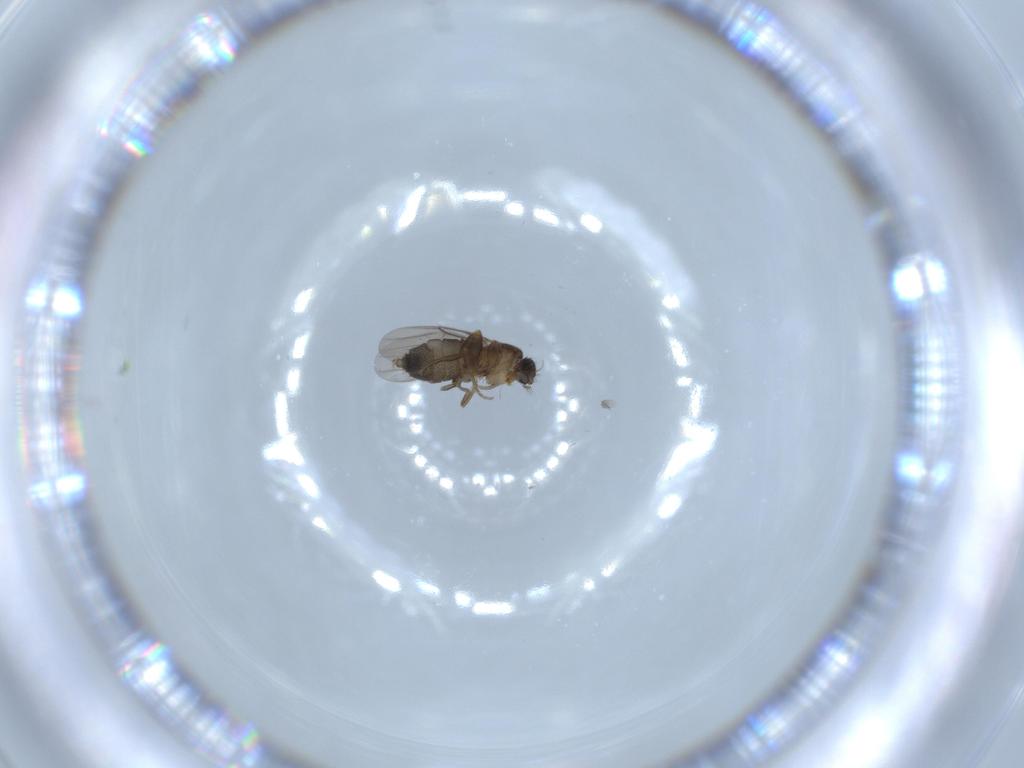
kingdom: Animalia
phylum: Arthropoda
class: Insecta
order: Diptera
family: Phoridae
